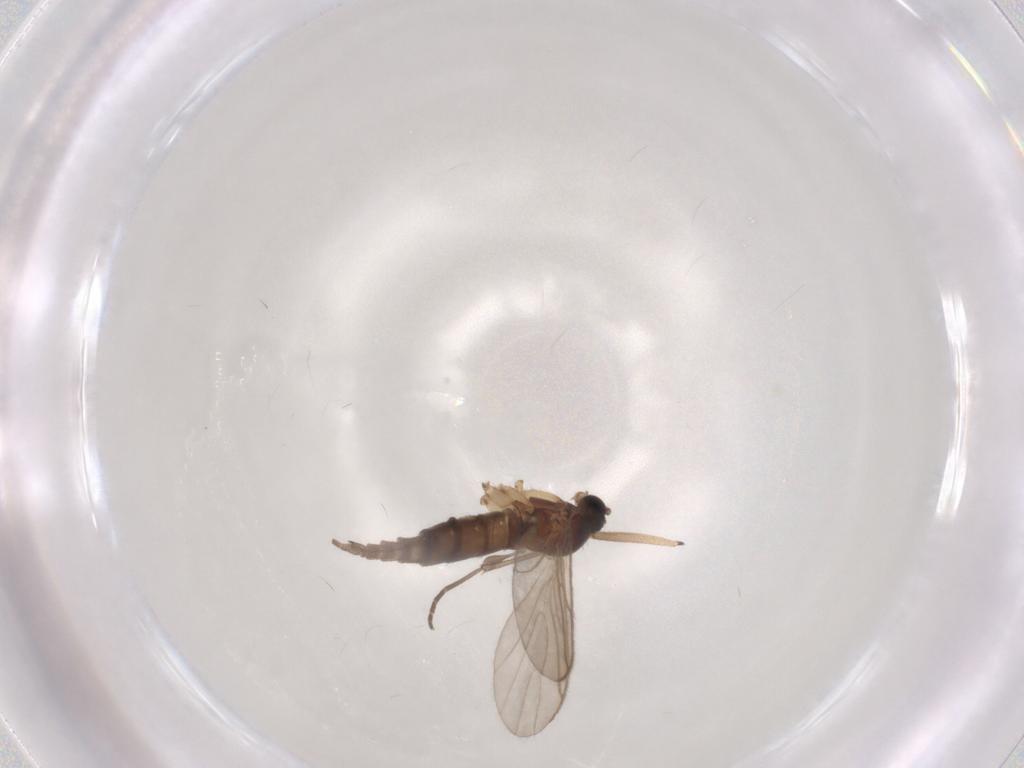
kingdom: Animalia
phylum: Arthropoda
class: Insecta
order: Diptera
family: Sciaridae
